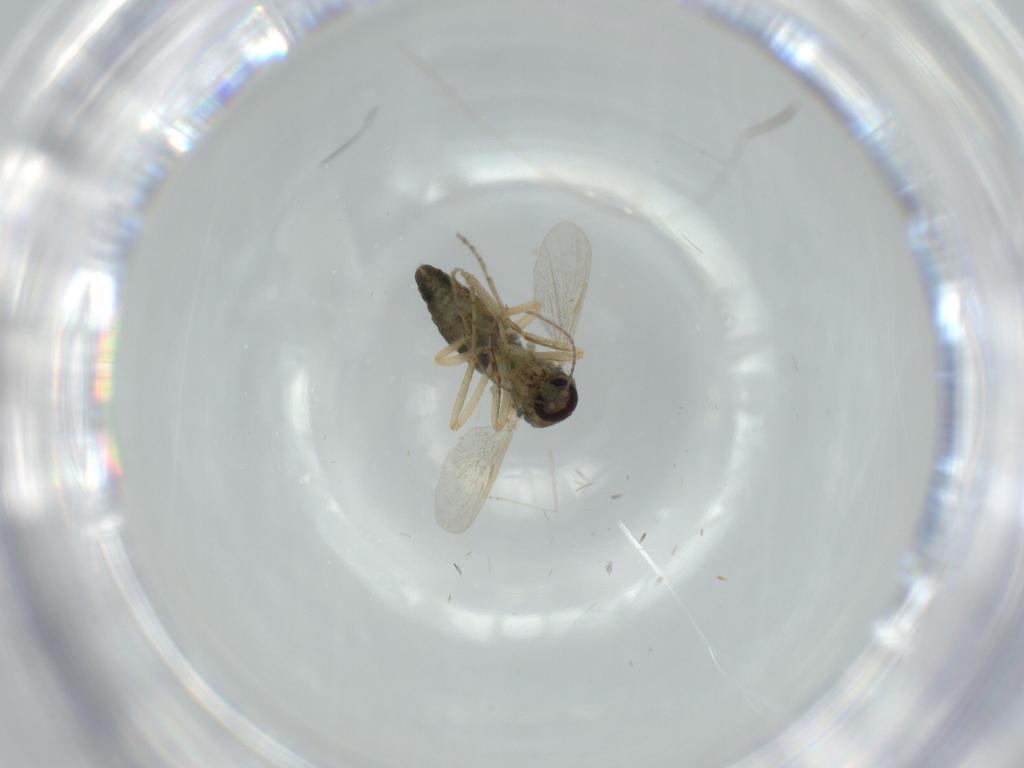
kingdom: Animalia
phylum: Arthropoda
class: Insecta
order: Diptera
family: Ceratopogonidae
